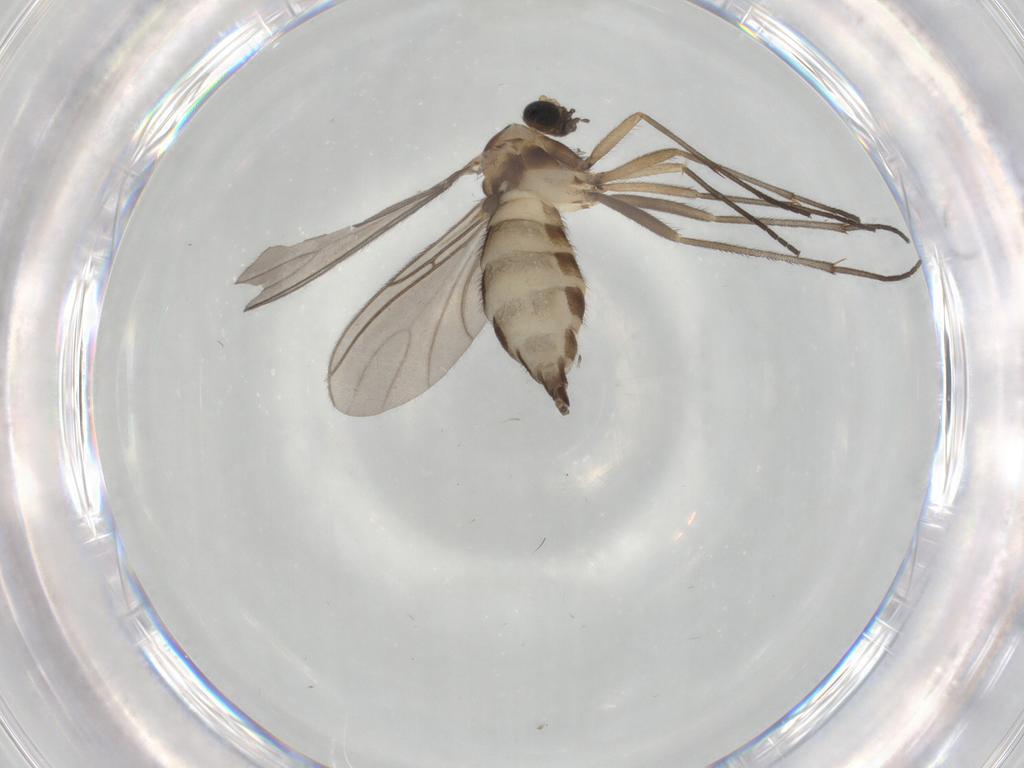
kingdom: Animalia
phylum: Arthropoda
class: Insecta
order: Diptera
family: Sciaridae
